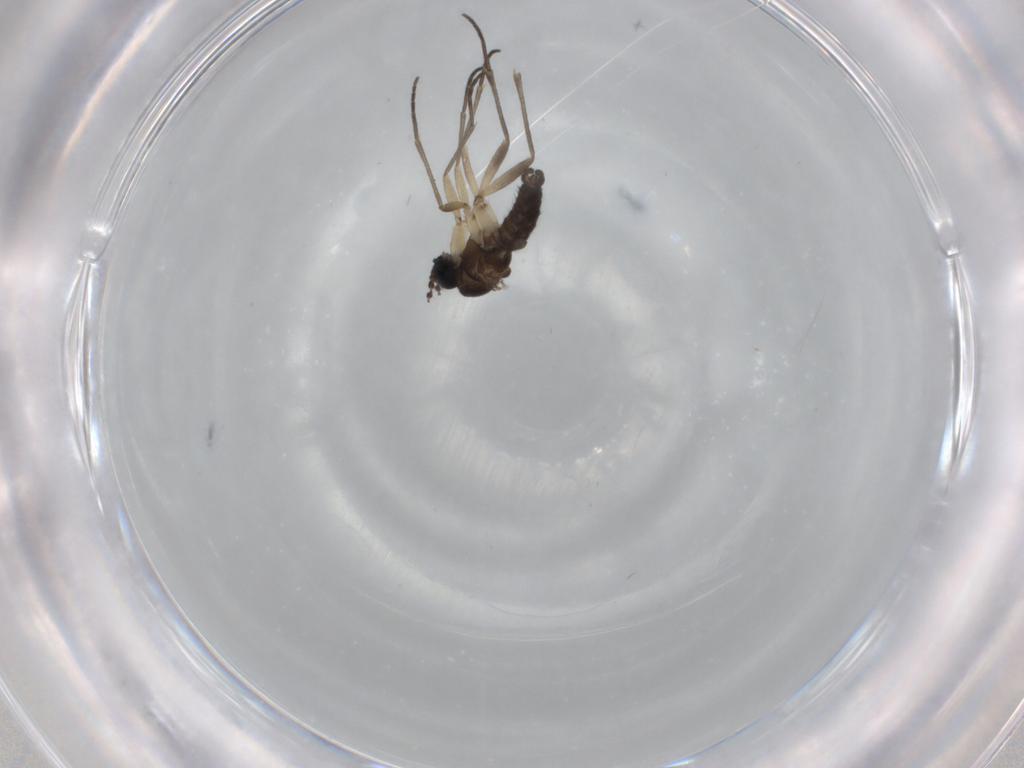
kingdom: Animalia
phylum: Arthropoda
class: Insecta
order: Diptera
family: Sciaridae
